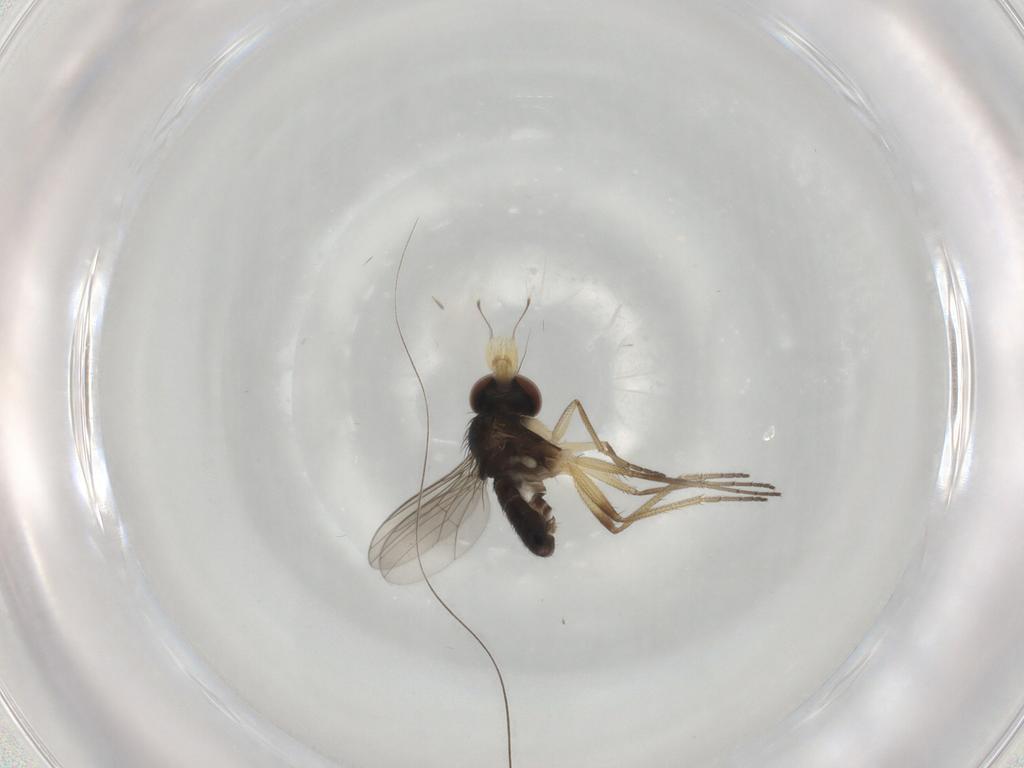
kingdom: Animalia
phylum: Arthropoda
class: Insecta
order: Diptera
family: Dolichopodidae
